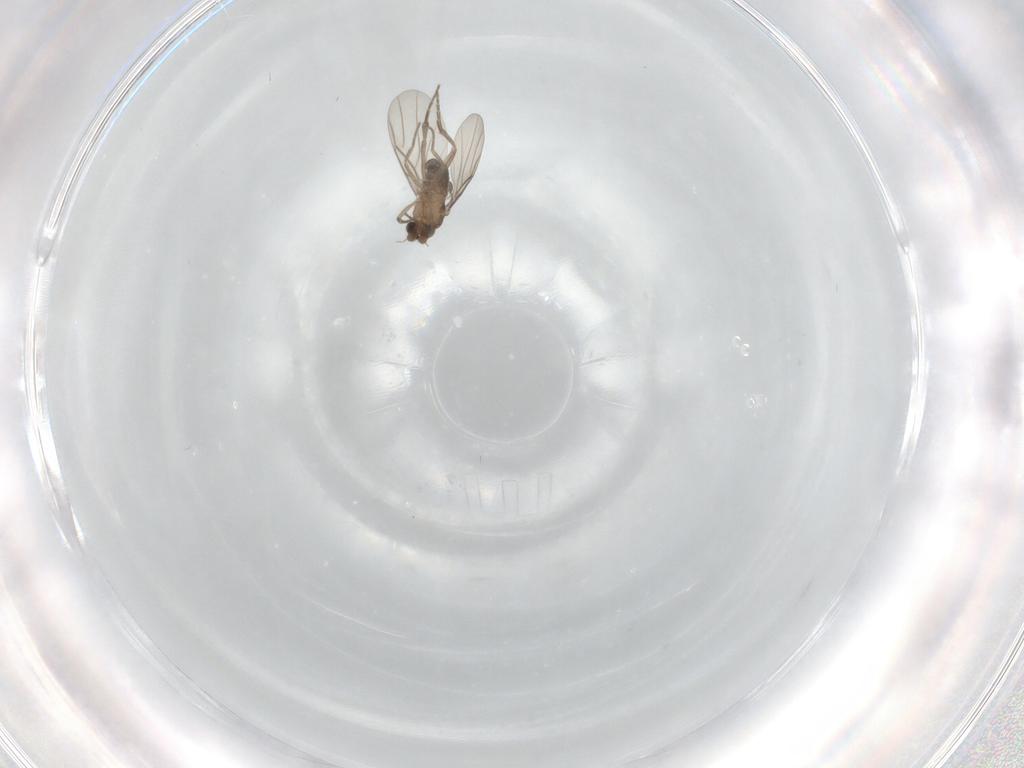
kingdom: Animalia
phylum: Arthropoda
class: Insecta
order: Diptera
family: Phoridae
